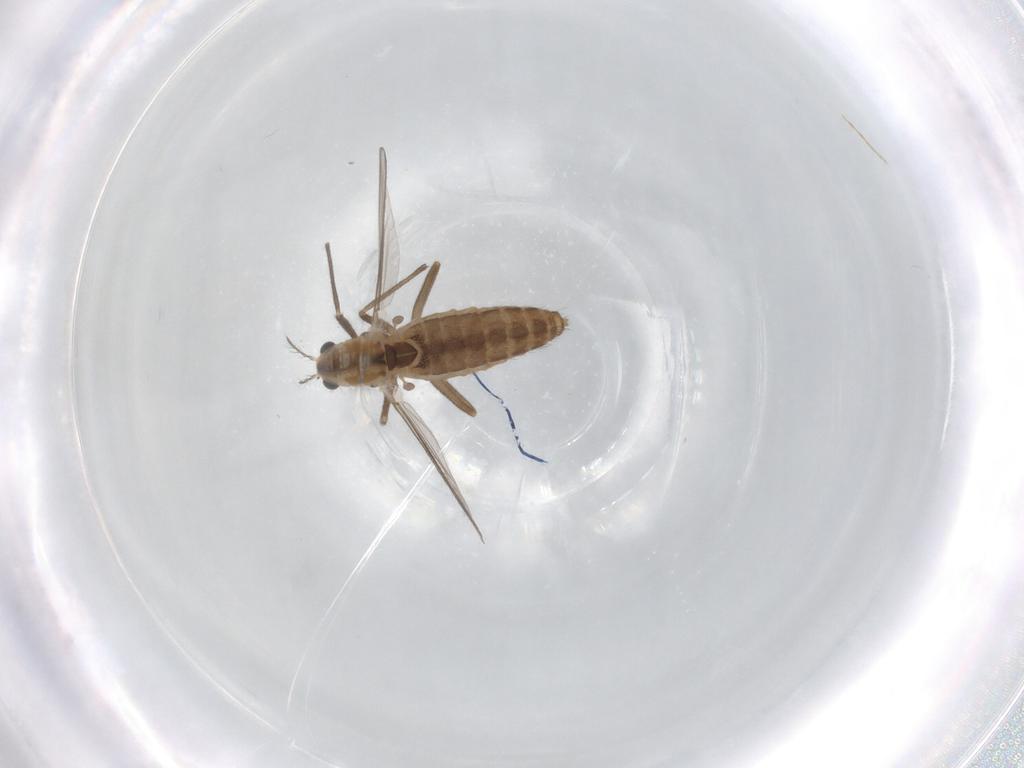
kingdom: Animalia
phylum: Arthropoda
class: Insecta
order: Diptera
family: Chironomidae
